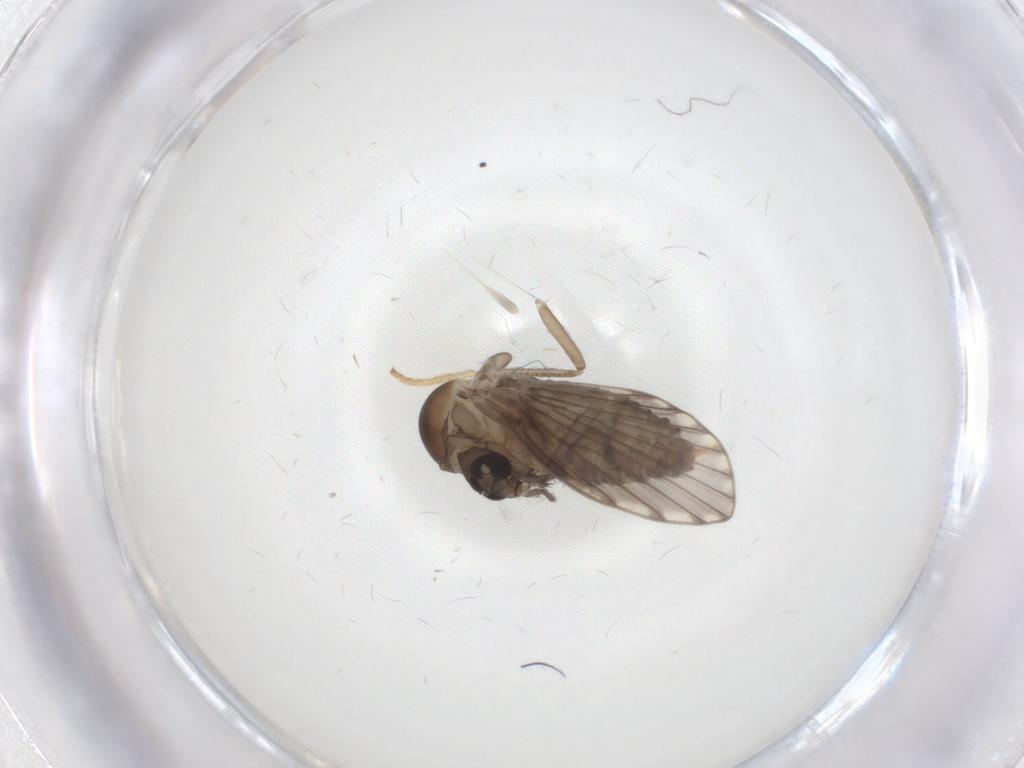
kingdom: Animalia
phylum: Arthropoda
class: Insecta
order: Diptera
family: Psychodidae
